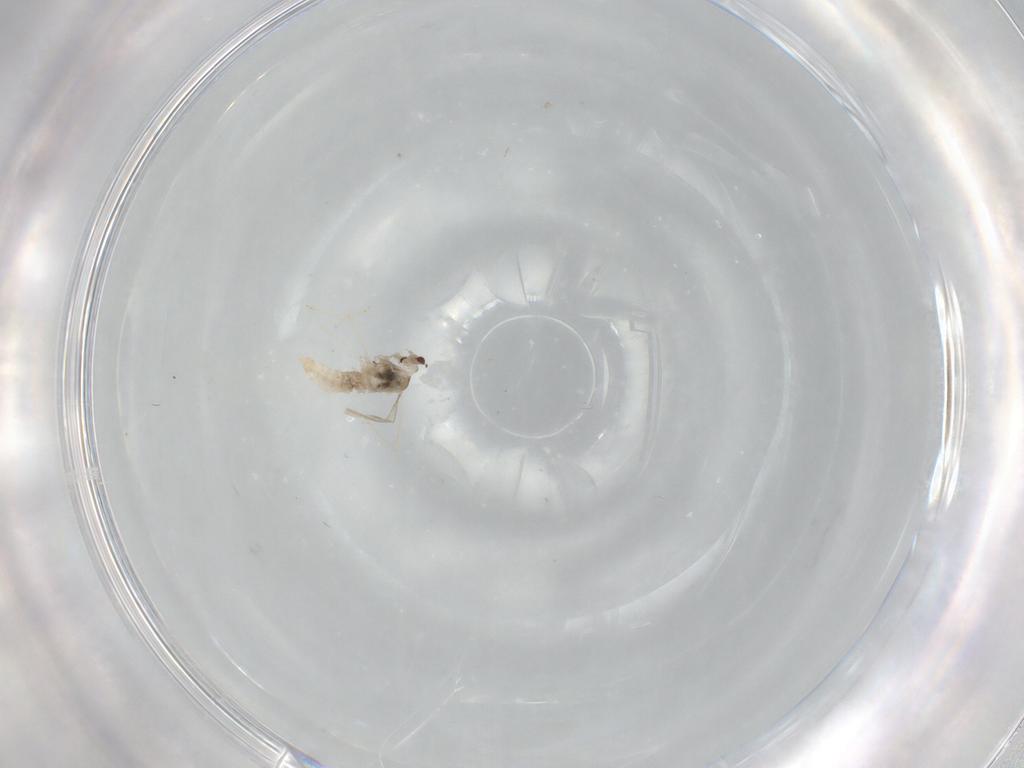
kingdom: Animalia
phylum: Arthropoda
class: Insecta
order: Diptera
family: Cecidomyiidae
